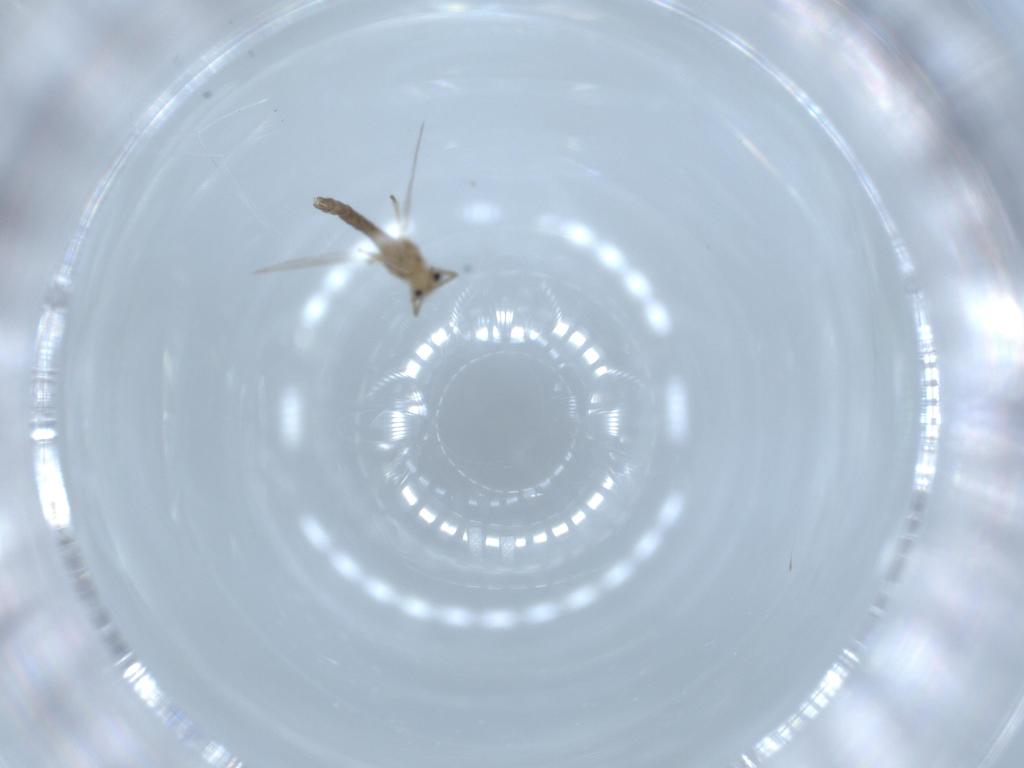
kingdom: Animalia
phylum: Arthropoda
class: Insecta
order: Diptera
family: Chironomidae
